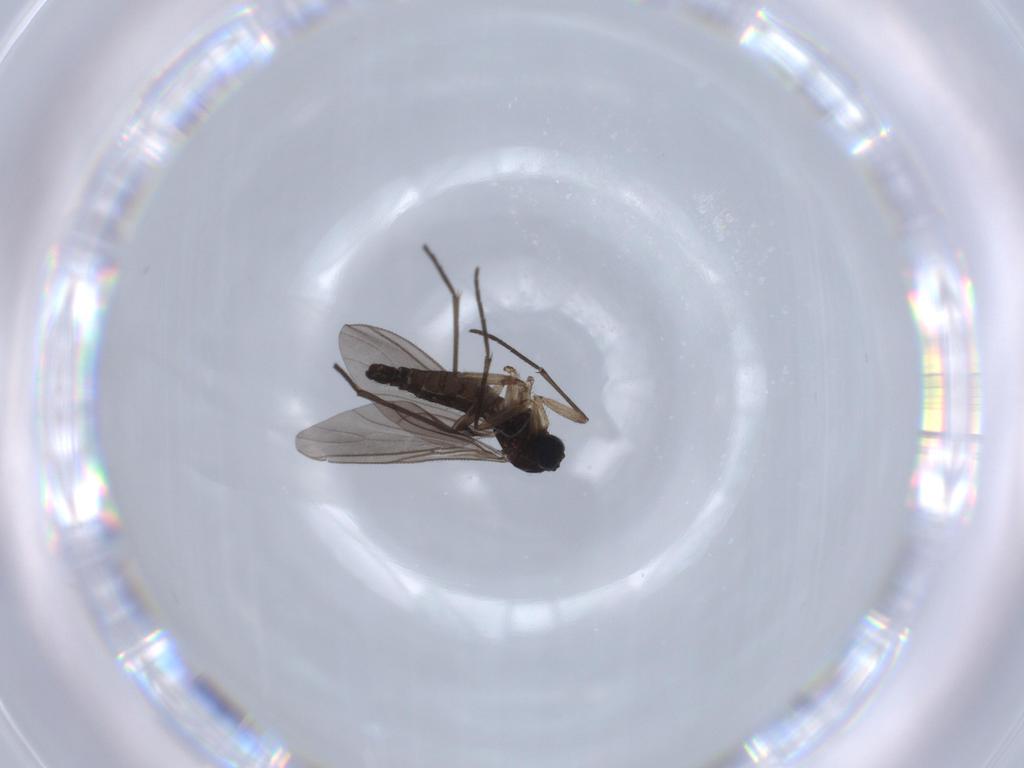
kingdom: Animalia
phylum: Arthropoda
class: Insecta
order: Diptera
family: Sciaridae
